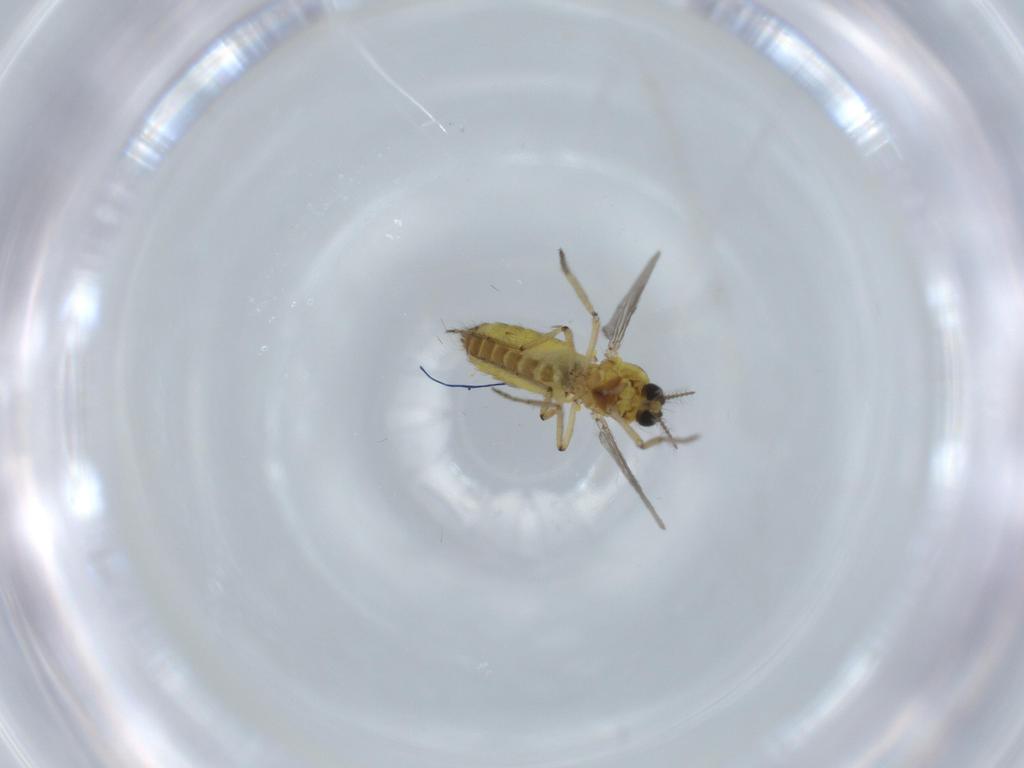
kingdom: Animalia
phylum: Arthropoda
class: Insecta
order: Diptera
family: Ceratopogonidae
